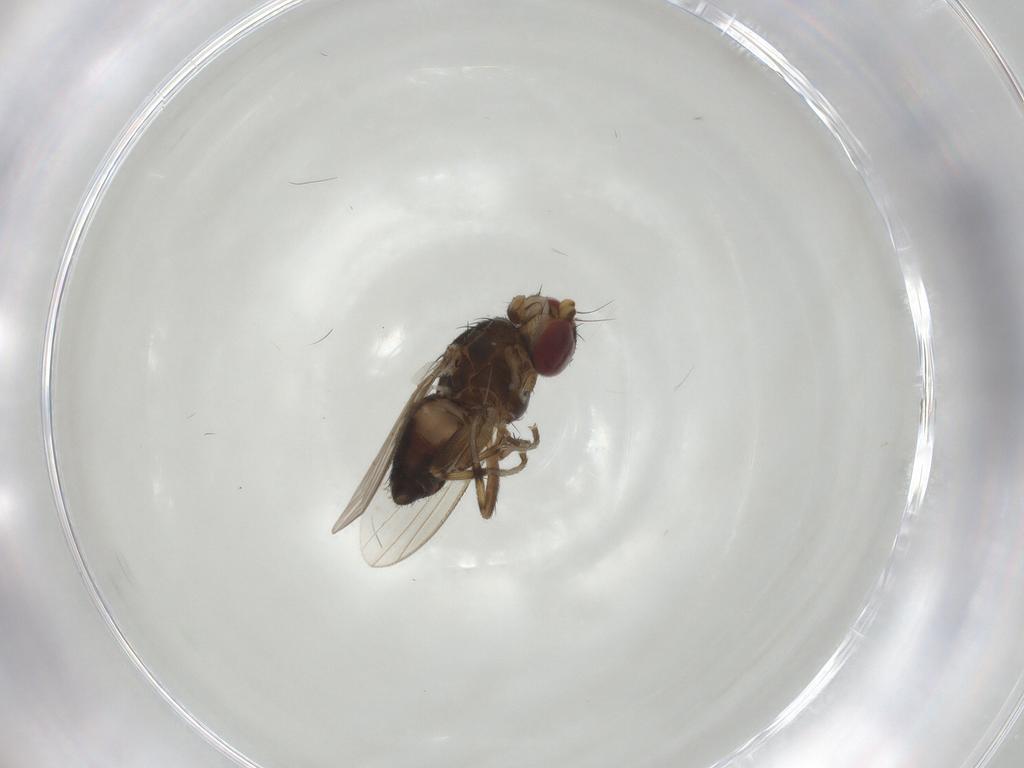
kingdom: Animalia
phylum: Arthropoda
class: Insecta
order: Diptera
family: Heleomyzidae
